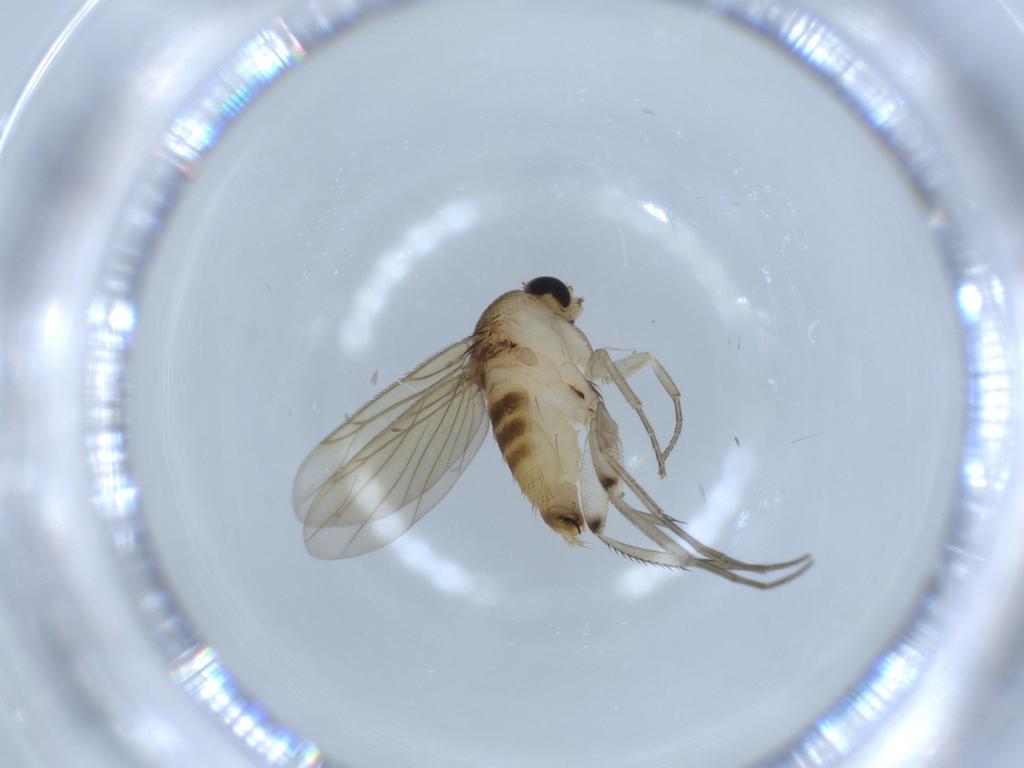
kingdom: Animalia
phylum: Arthropoda
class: Insecta
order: Diptera
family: Phoridae
